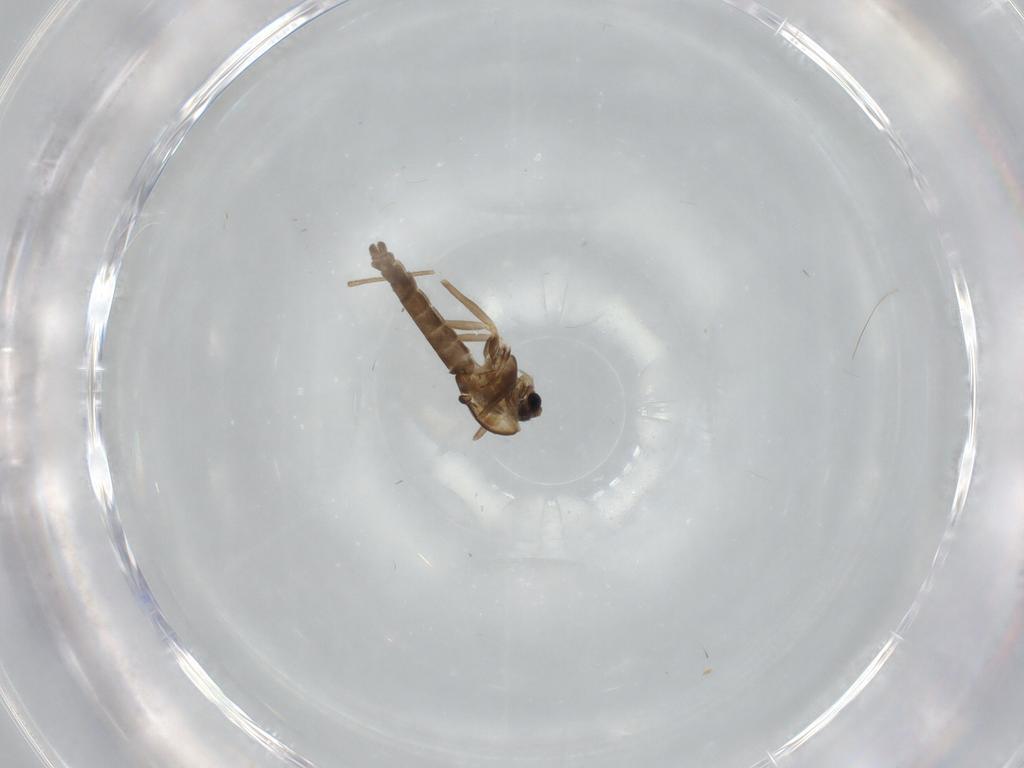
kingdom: Animalia
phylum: Arthropoda
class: Insecta
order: Diptera
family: Chironomidae
